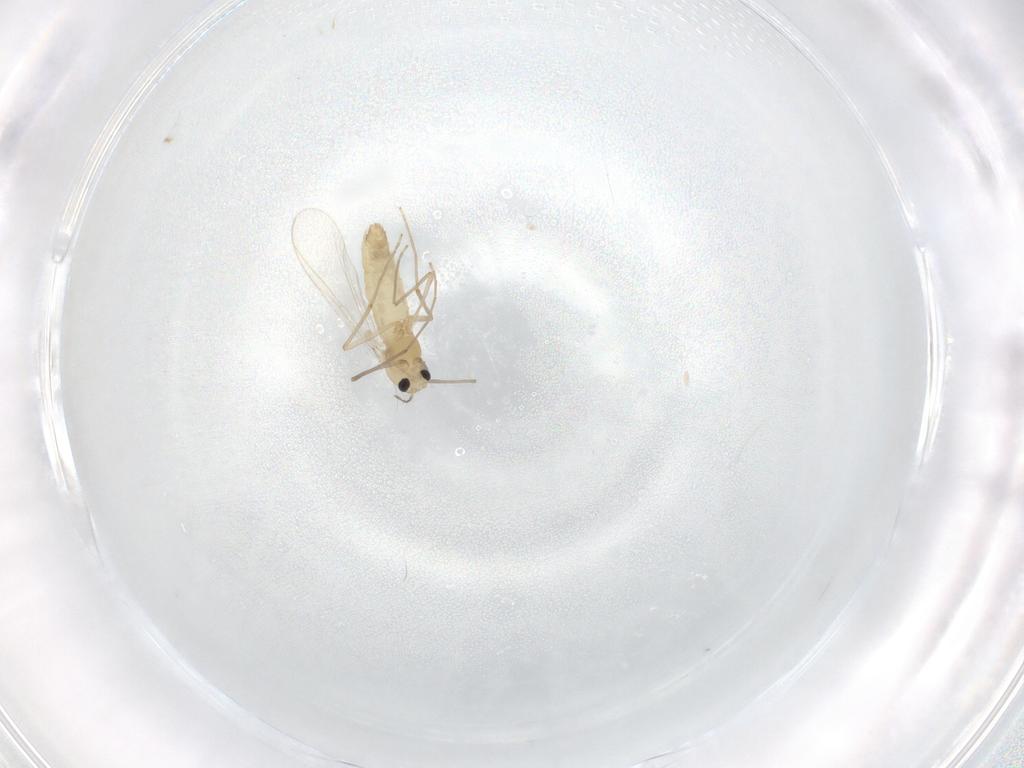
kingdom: Animalia
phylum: Arthropoda
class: Insecta
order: Diptera
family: Chironomidae
